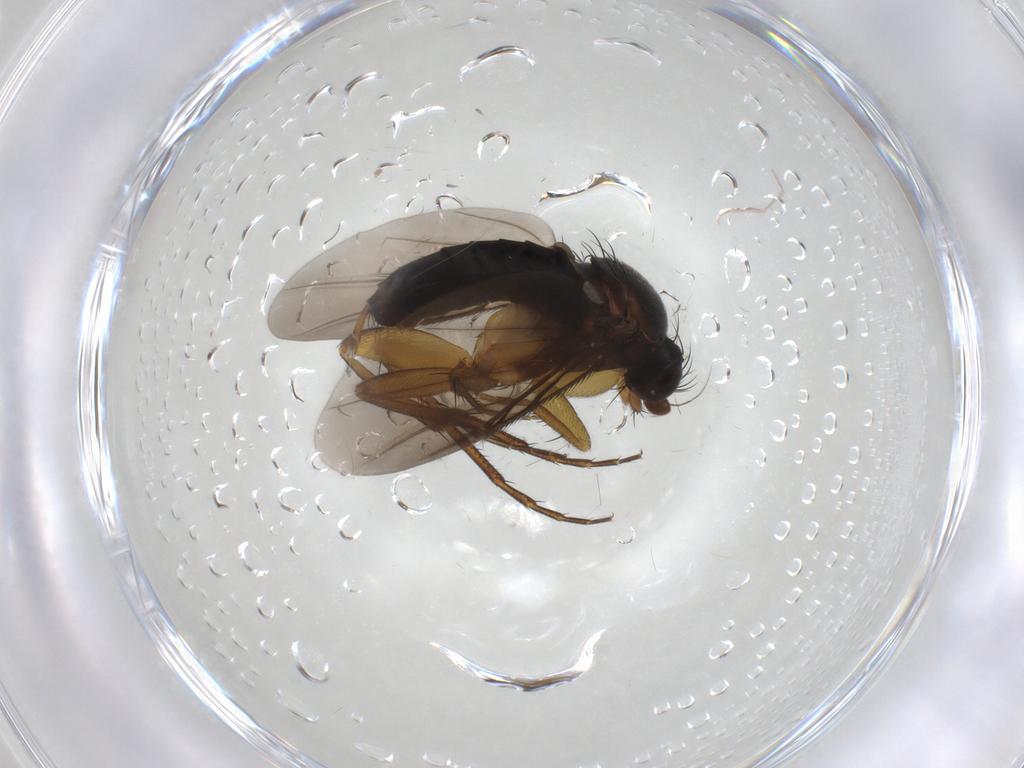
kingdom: Animalia
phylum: Arthropoda
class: Insecta
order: Diptera
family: Phoridae
